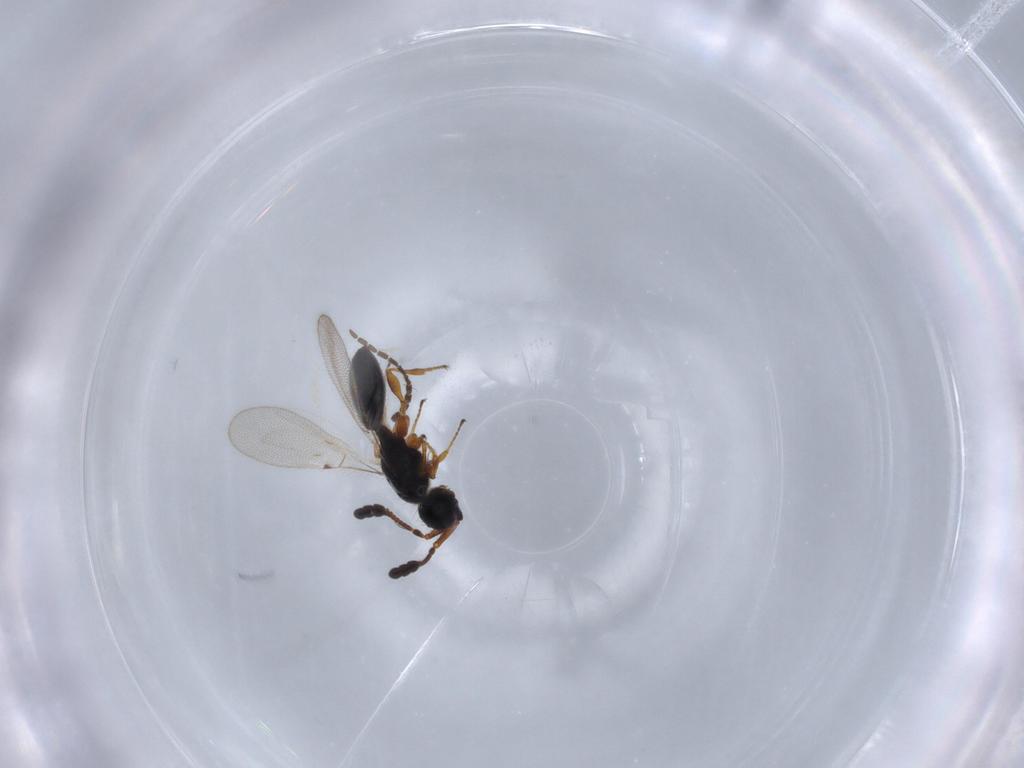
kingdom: Animalia
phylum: Arthropoda
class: Insecta
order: Hymenoptera
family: Diapriidae
